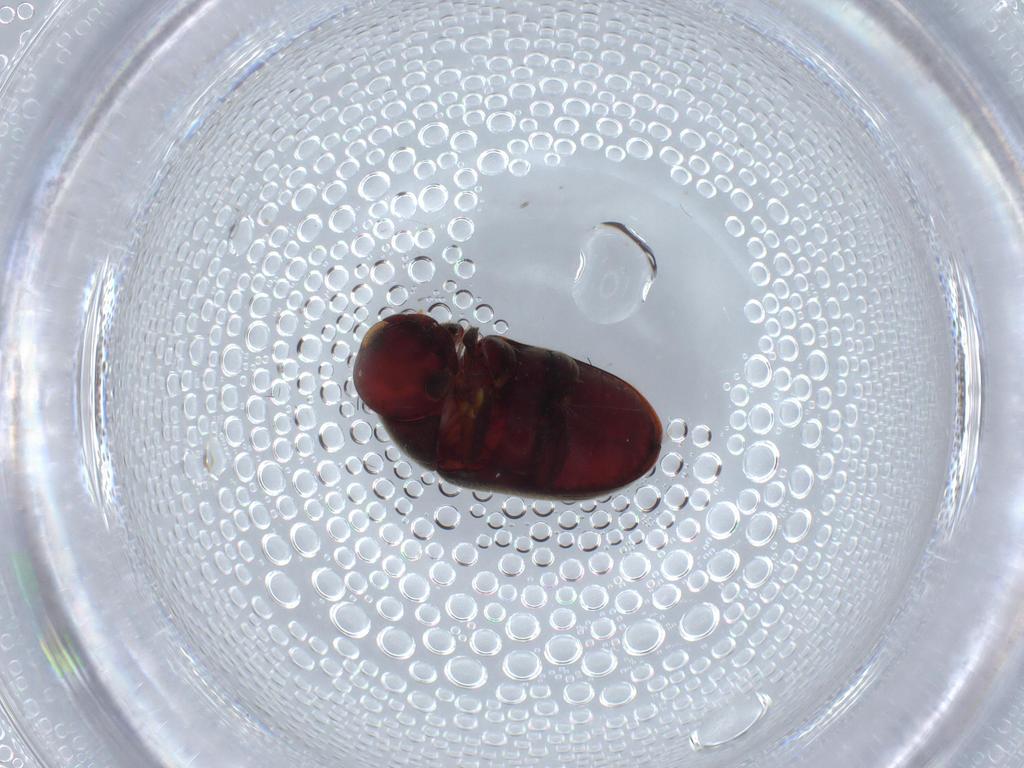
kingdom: Animalia
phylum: Arthropoda
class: Insecta
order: Coleoptera
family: Ptinidae
